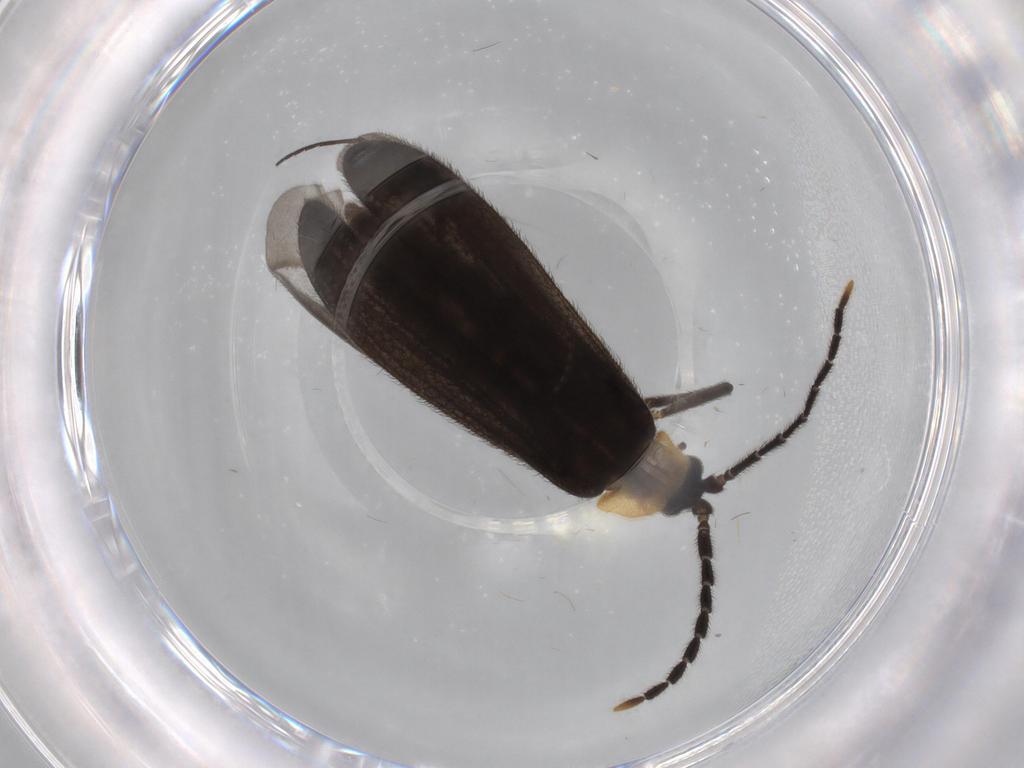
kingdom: Animalia
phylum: Arthropoda
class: Insecta
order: Coleoptera
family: Lycidae
